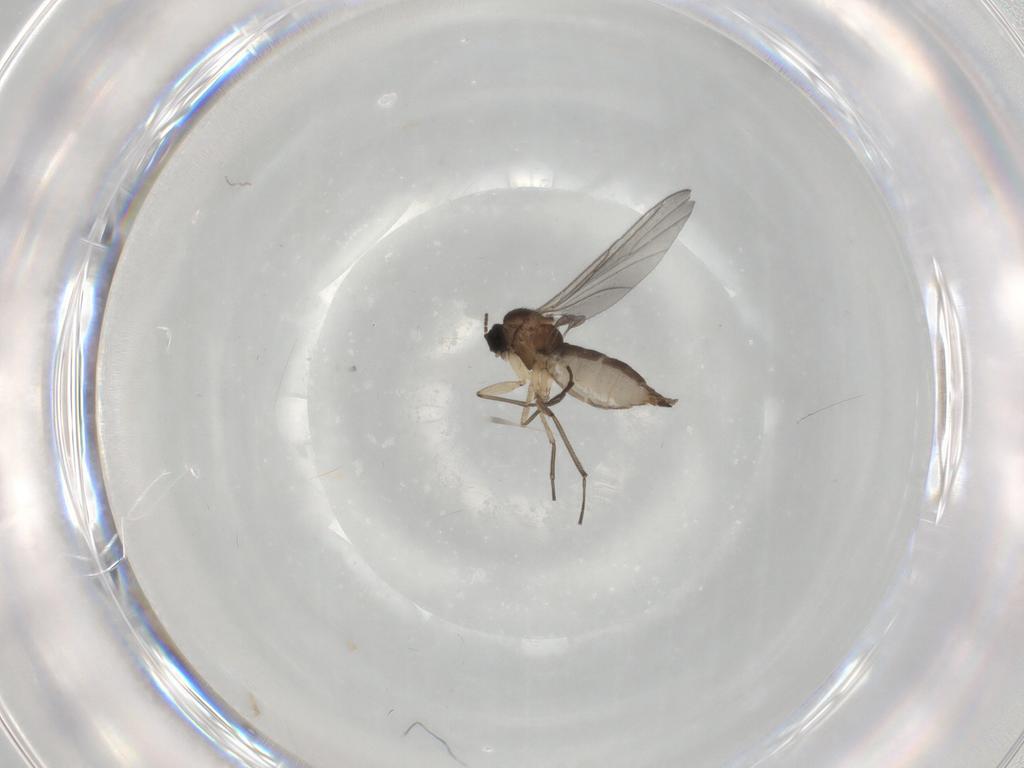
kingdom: Animalia
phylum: Arthropoda
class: Insecta
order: Diptera
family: Sciaridae
